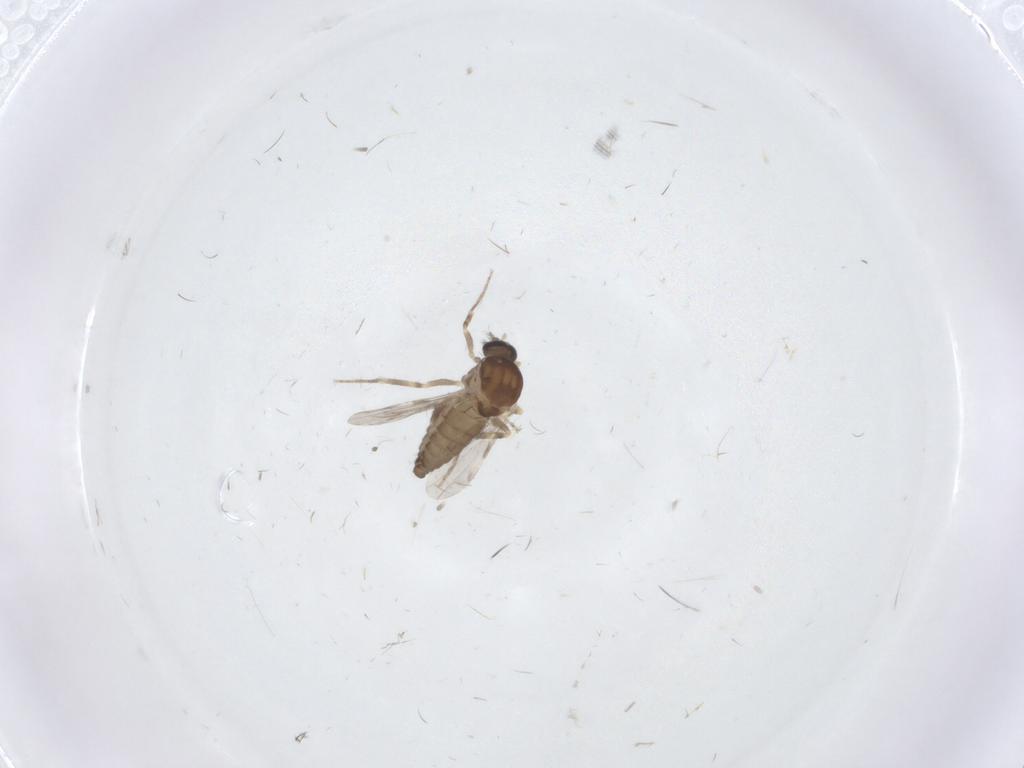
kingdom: Animalia
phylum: Arthropoda
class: Insecta
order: Diptera
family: Ceratopogonidae
